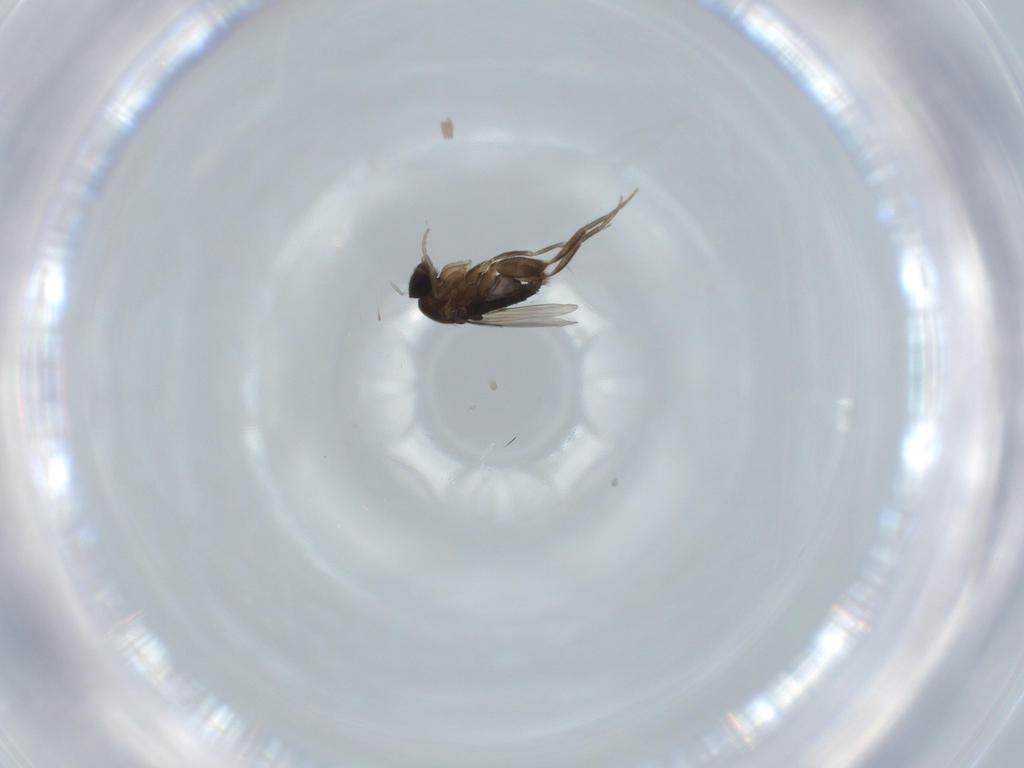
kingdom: Animalia
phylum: Arthropoda
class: Insecta
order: Diptera
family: Phoridae
